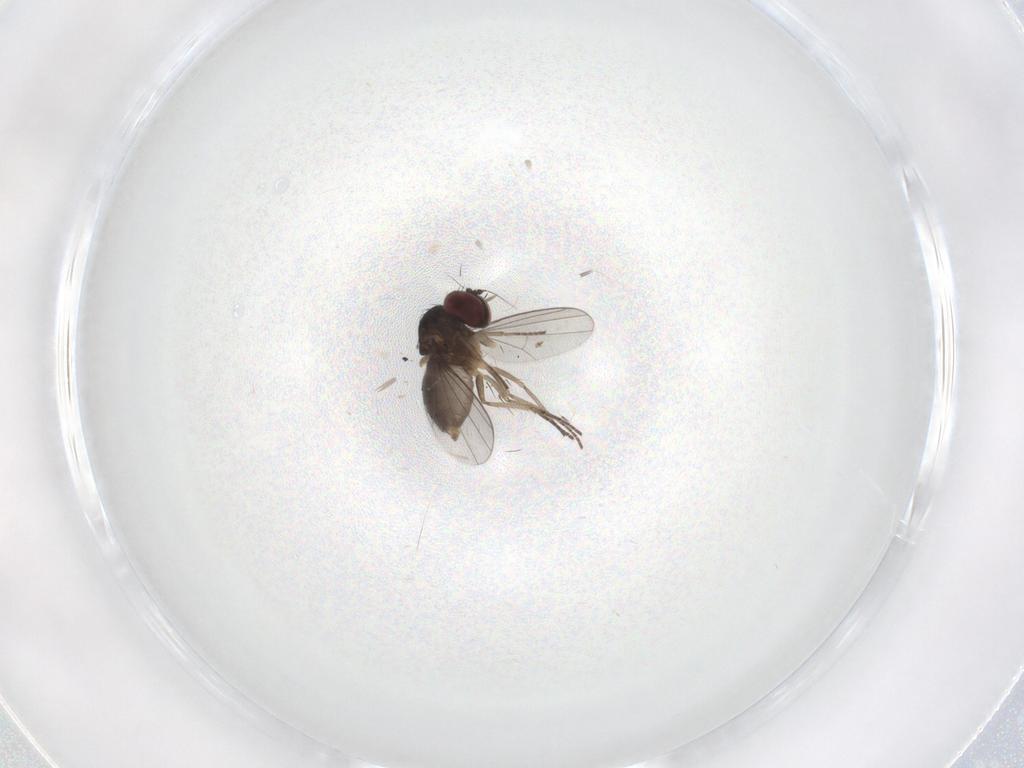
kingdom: Animalia
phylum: Arthropoda
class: Insecta
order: Diptera
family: Dolichopodidae
